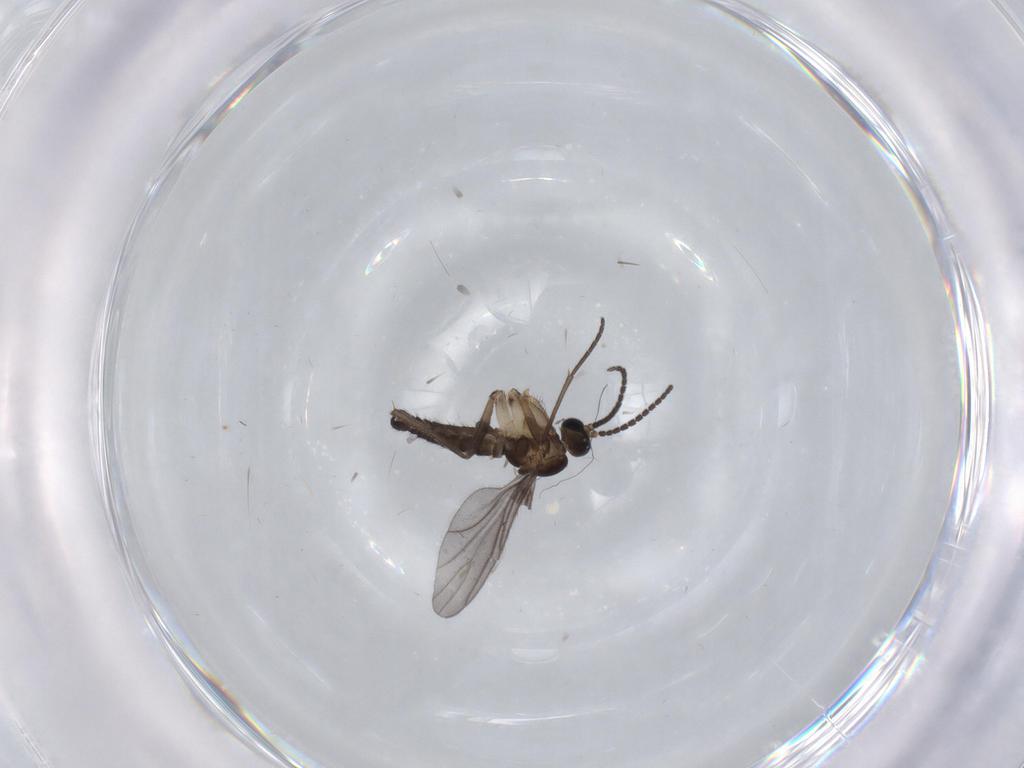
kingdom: Animalia
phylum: Arthropoda
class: Insecta
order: Diptera
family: Sciaridae
